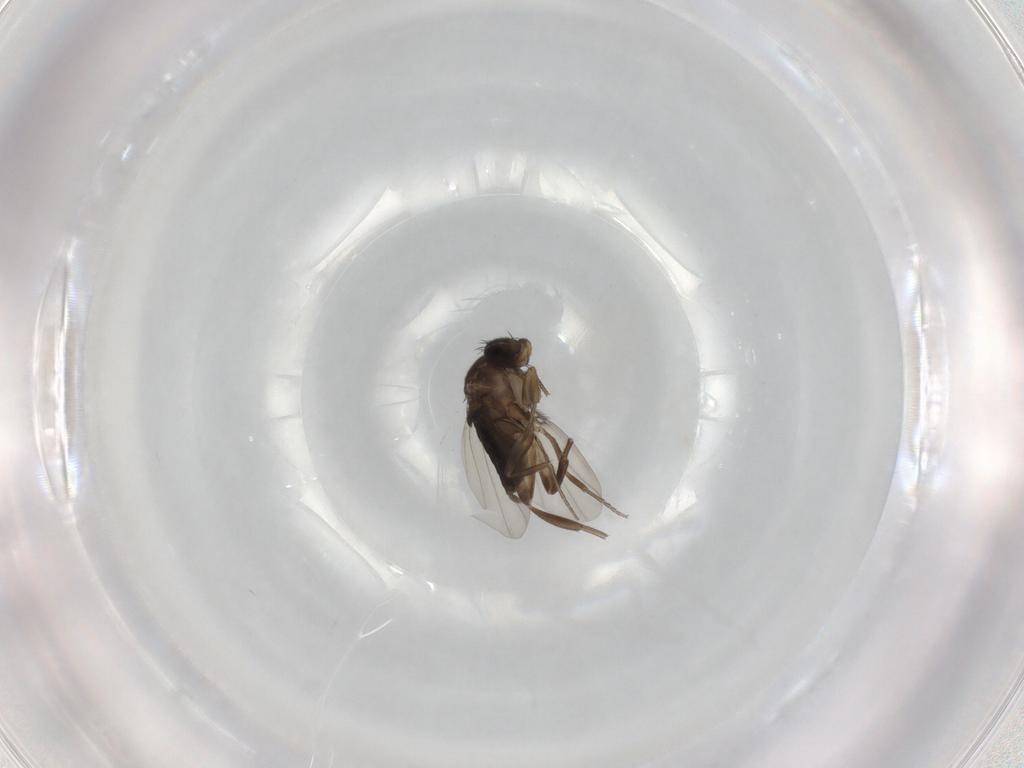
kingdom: Animalia
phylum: Arthropoda
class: Insecta
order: Diptera
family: Phoridae
